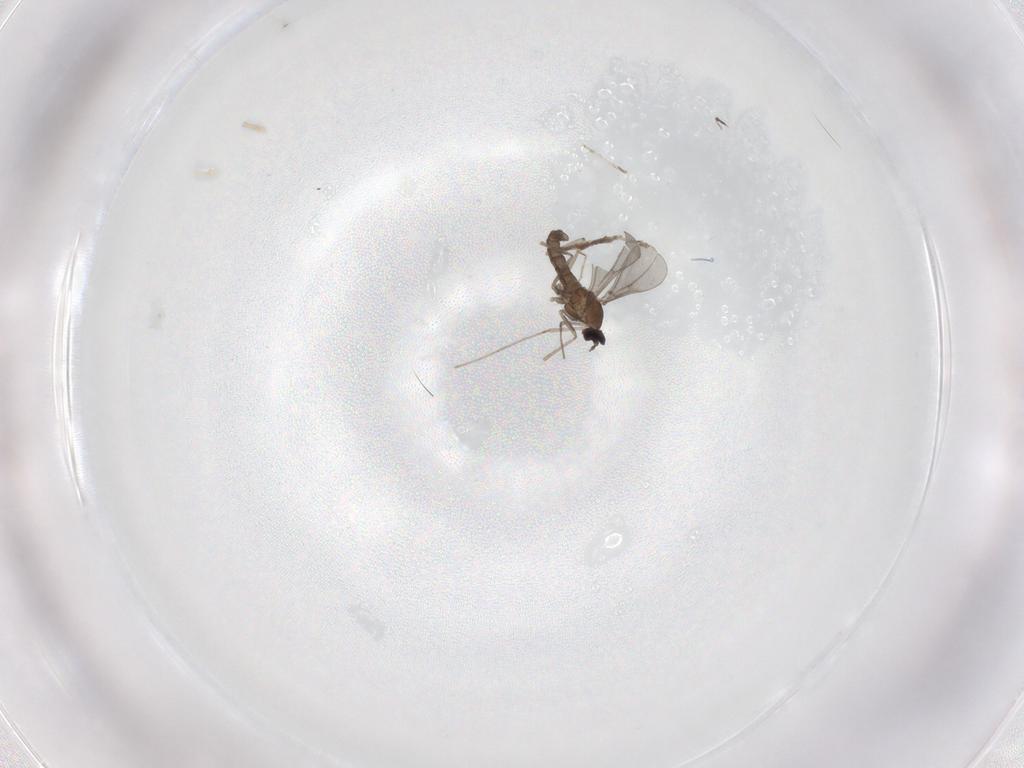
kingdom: Animalia
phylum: Arthropoda
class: Insecta
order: Diptera
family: Cecidomyiidae
